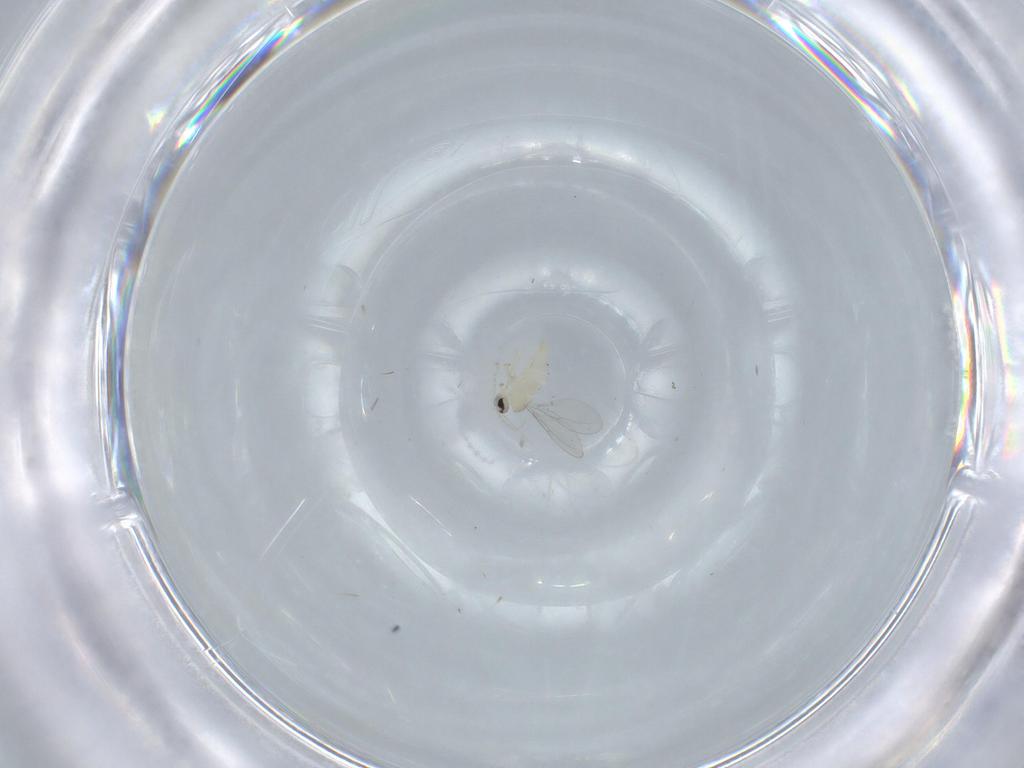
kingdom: Animalia
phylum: Arthropoda
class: Insecta
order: Diptera
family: Cecidomyiidae
